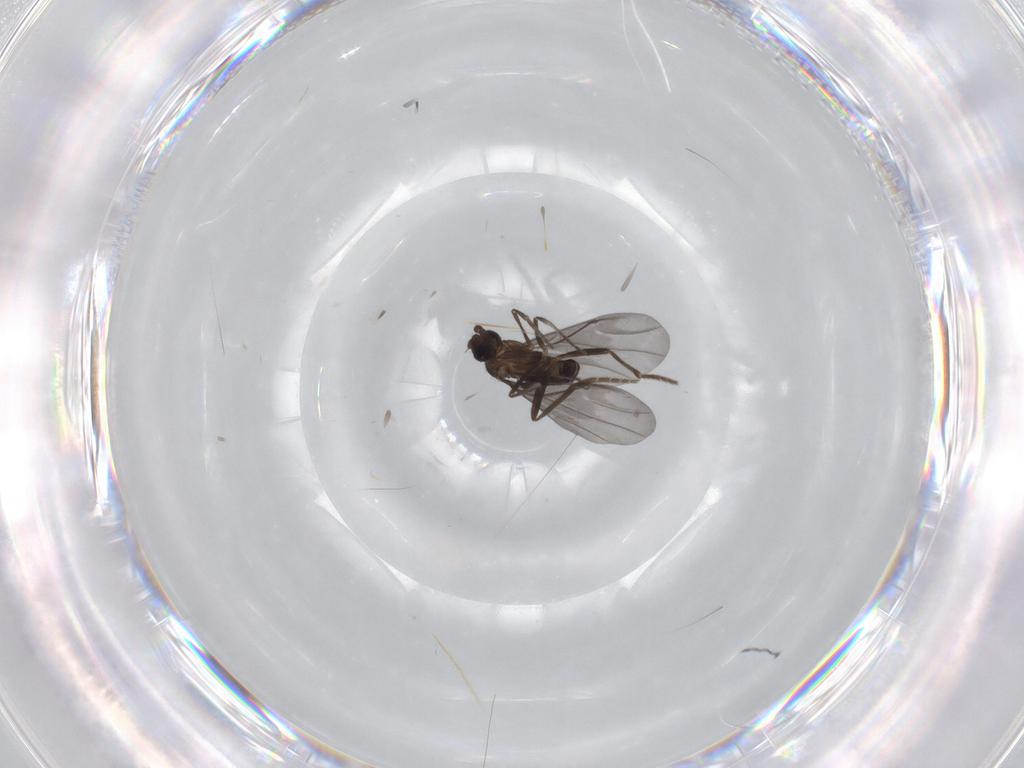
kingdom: Animalia
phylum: Arthropoda
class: Insecta
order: Diptera
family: Phoridae
